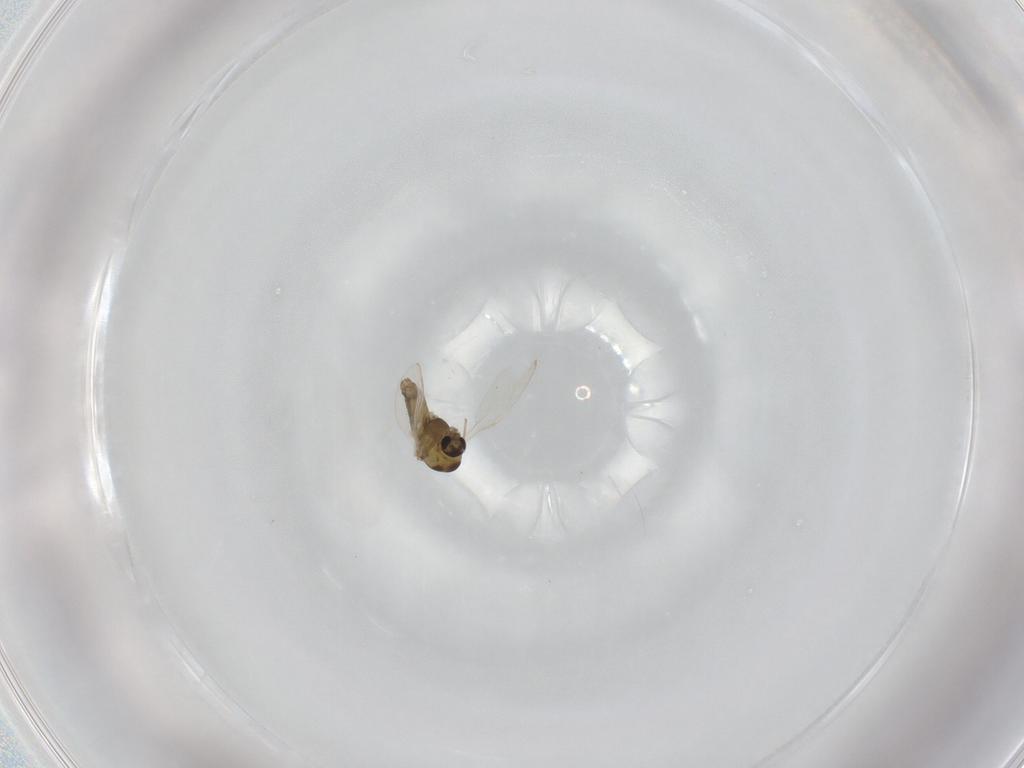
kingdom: Animalia
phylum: Arthropoda
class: Insecta
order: Diptera
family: Chironomidae
